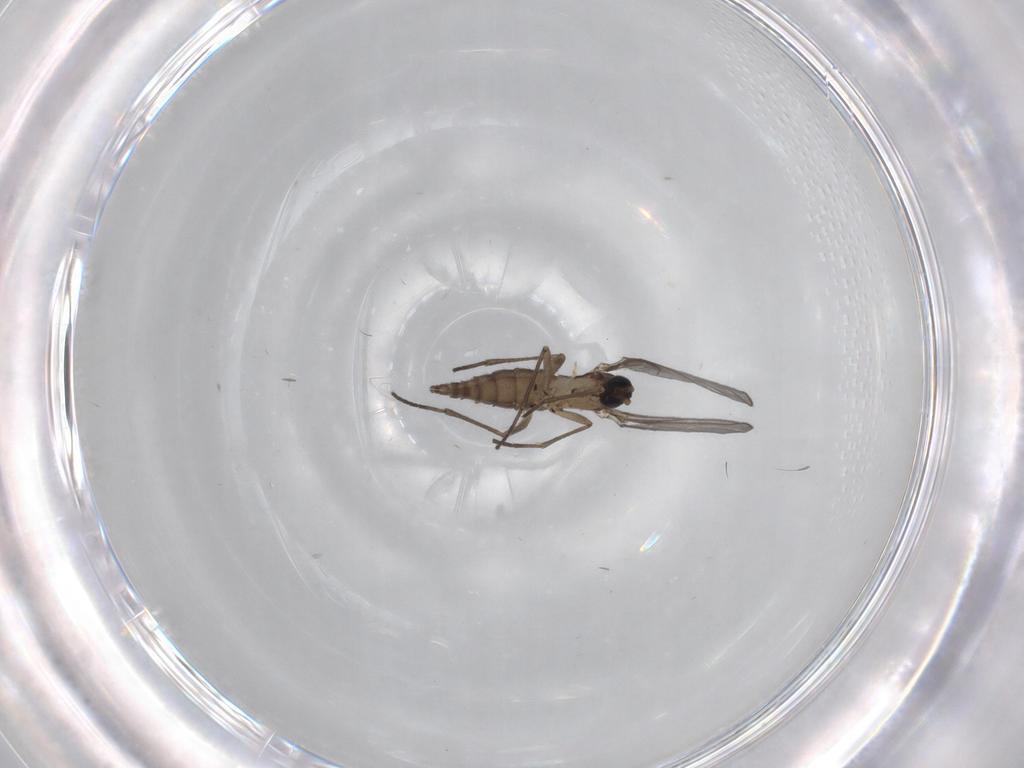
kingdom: Animalia
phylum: Arthropoda
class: Insecta
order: Diptera
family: Sciaridae
